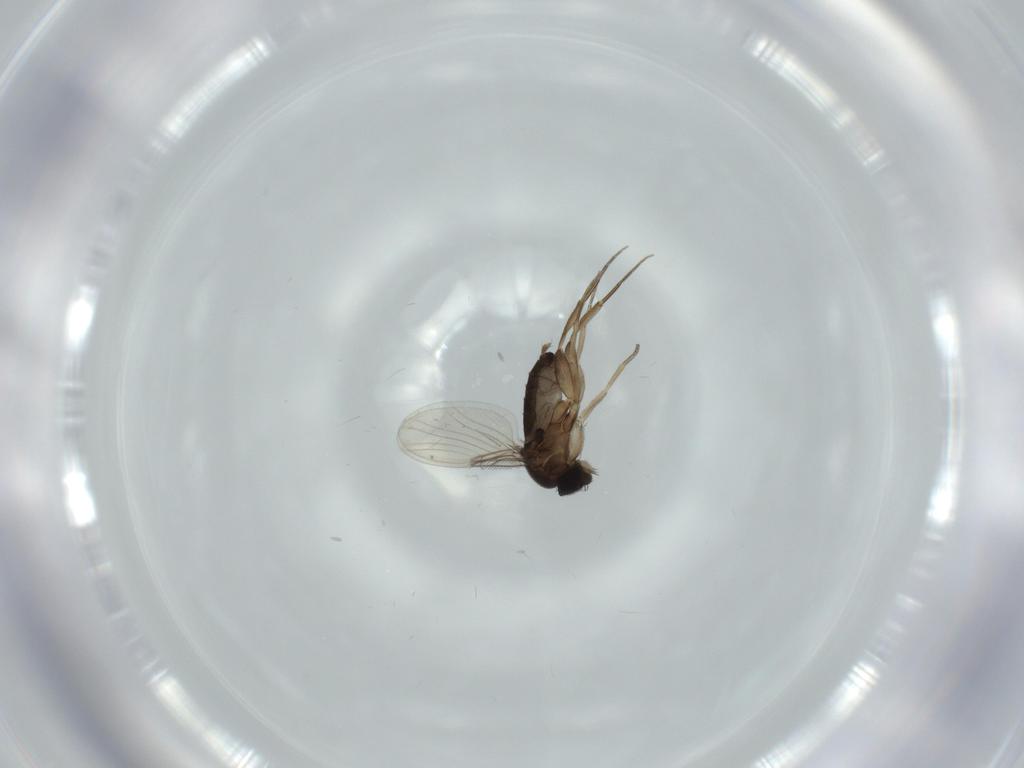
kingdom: Animalia
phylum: Arthropoda
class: Insecta
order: Diptera
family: Phoridae
